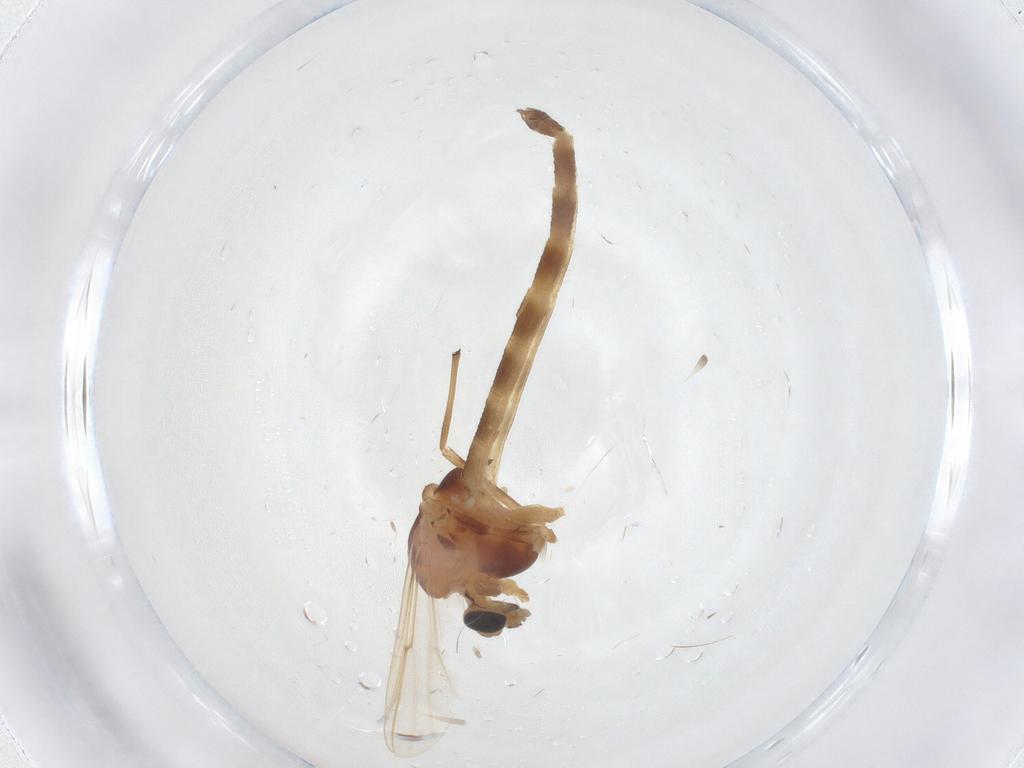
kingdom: Animalia
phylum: Arthropoda
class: Insecta
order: Diptera
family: Chironomidae
